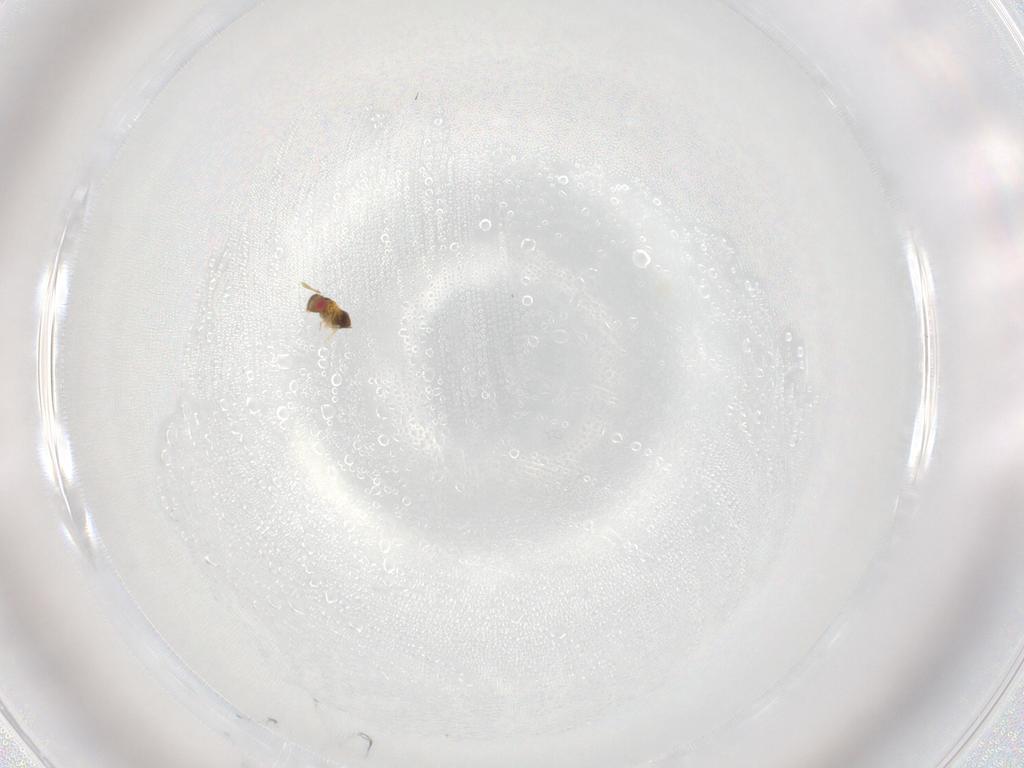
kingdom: Animalia
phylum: Arthropoda
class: Insecta
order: Hymenoptera
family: Trichogrammatidae
